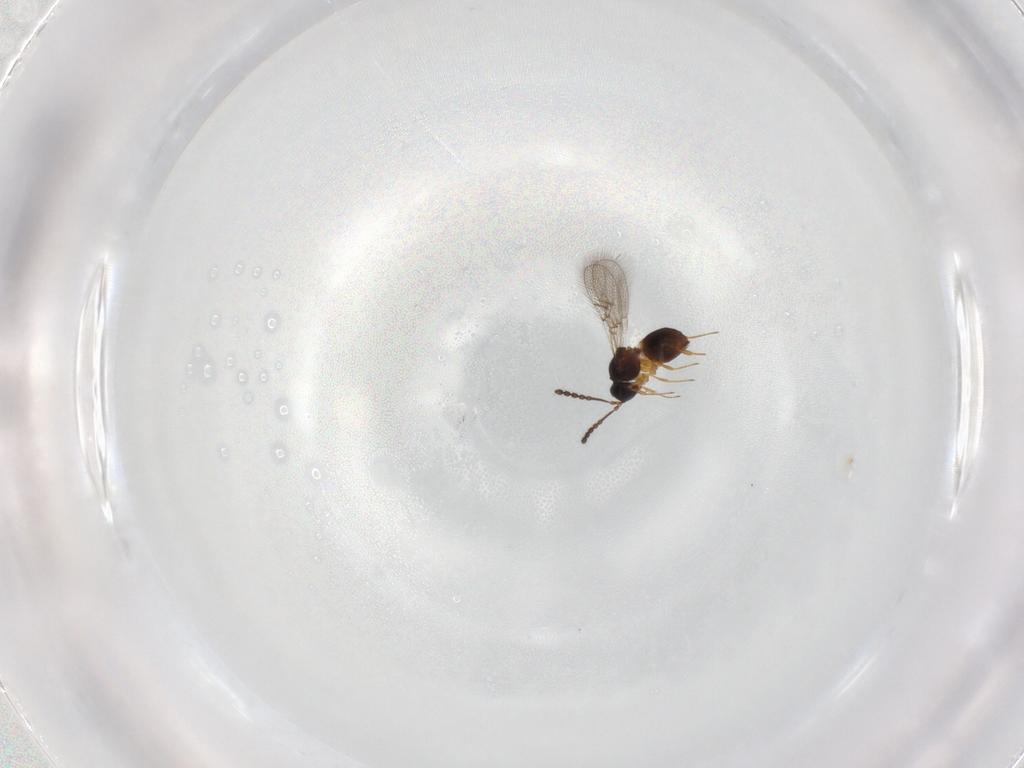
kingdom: Animalia
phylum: Arthropoda
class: Insecta
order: Hymenoptera
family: Figitidae
